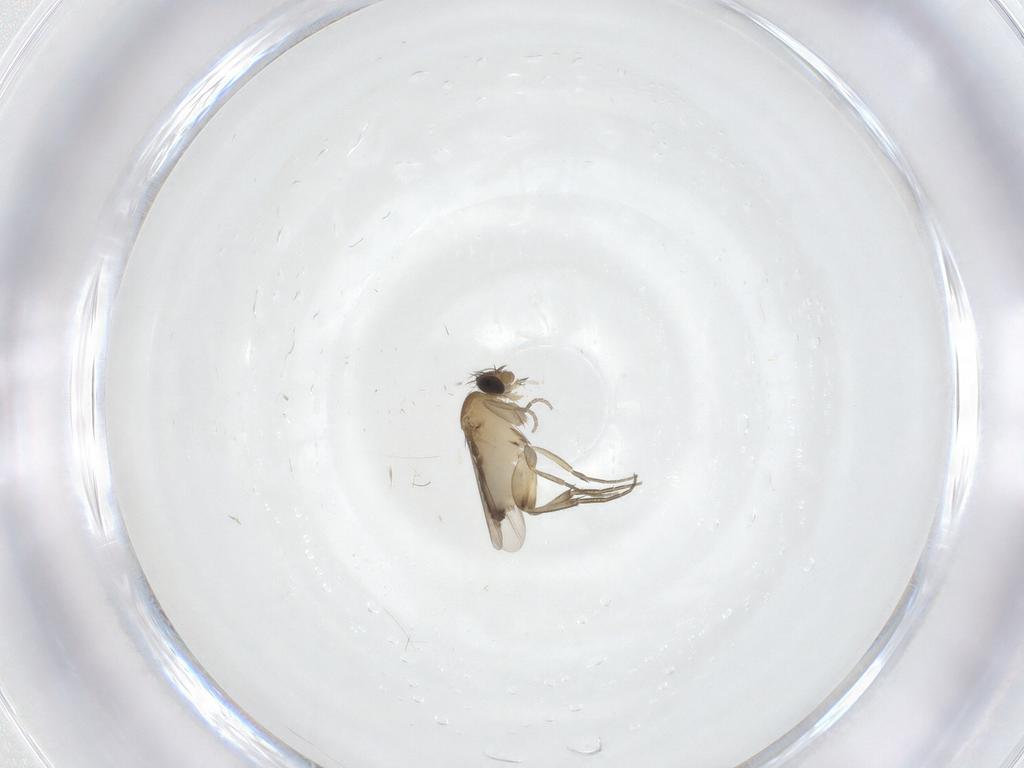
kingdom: Animalia
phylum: Arthropoda
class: Insecta
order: Diptera
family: Phoridae
